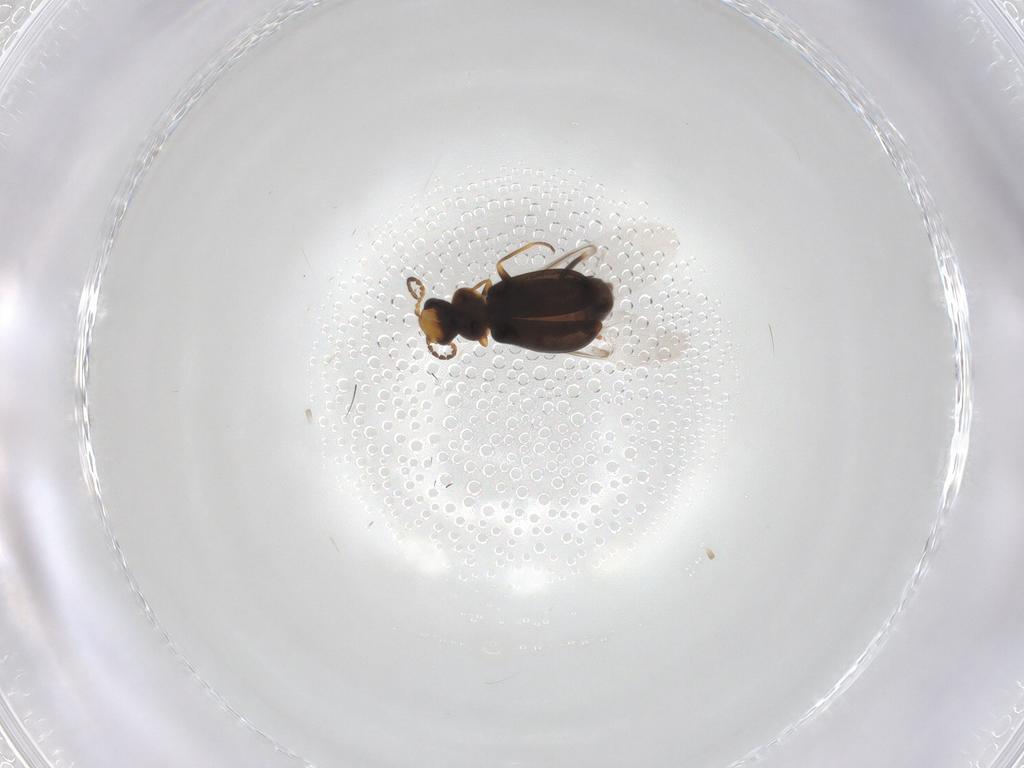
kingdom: Animalia
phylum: Arthropoda
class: Insecta
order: Coleoptera
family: Melyridae
